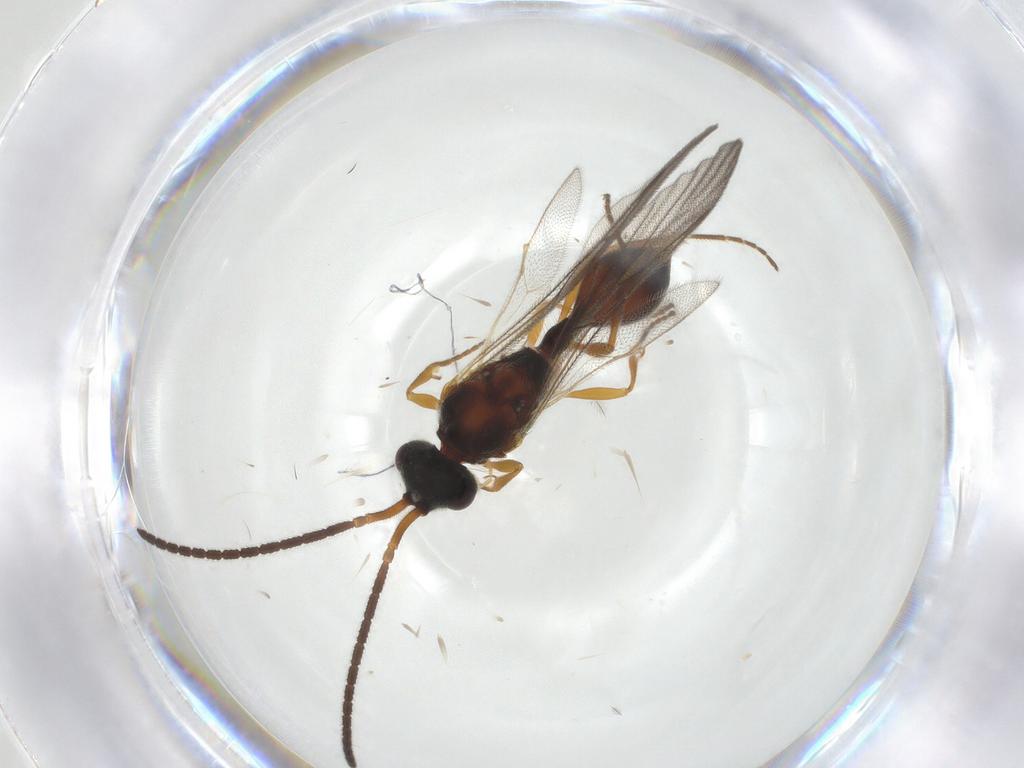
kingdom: Animalia
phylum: Arthropoda
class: Insecta
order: Hymenoptera
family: Diapriidae
